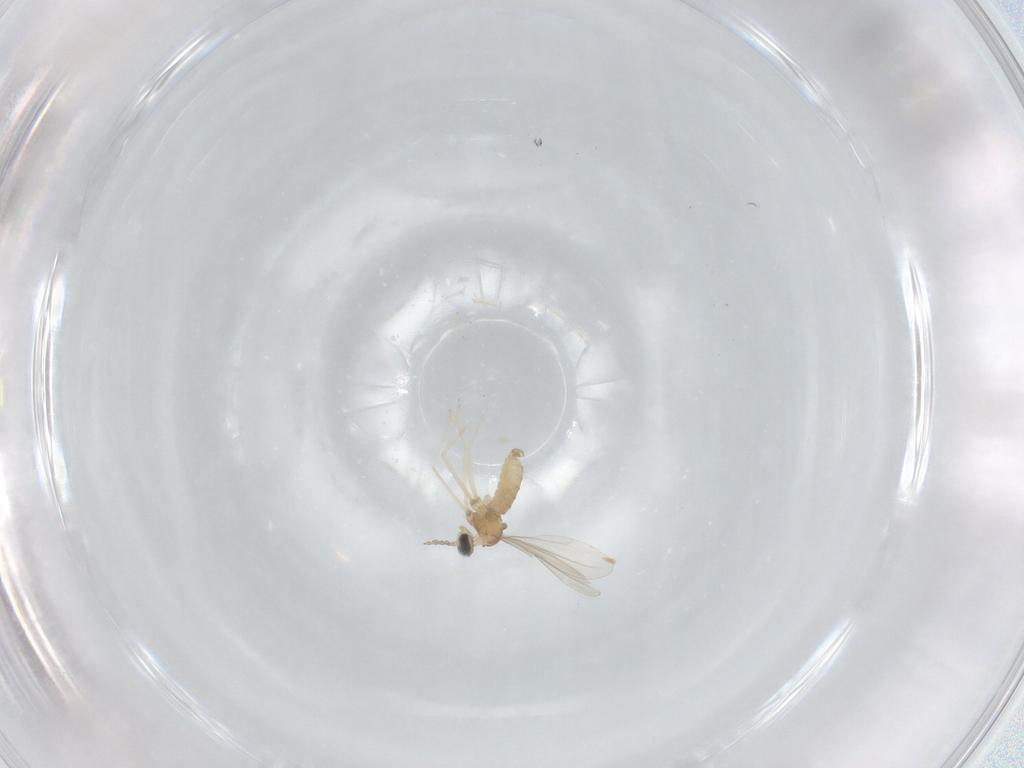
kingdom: Animalia
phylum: Arthropoda
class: Insecta
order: Diptera
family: Cecidomyiidae
